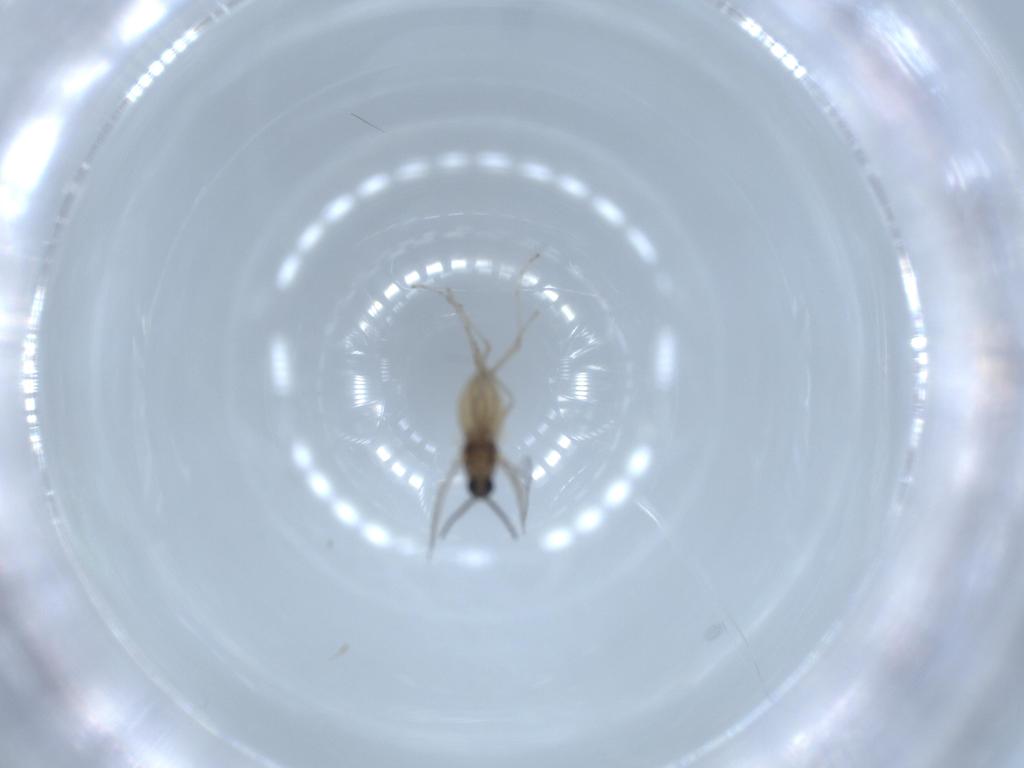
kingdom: Animalia
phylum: Arthropoda
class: Insecta
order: Diptera
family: Cecidomyiidae
